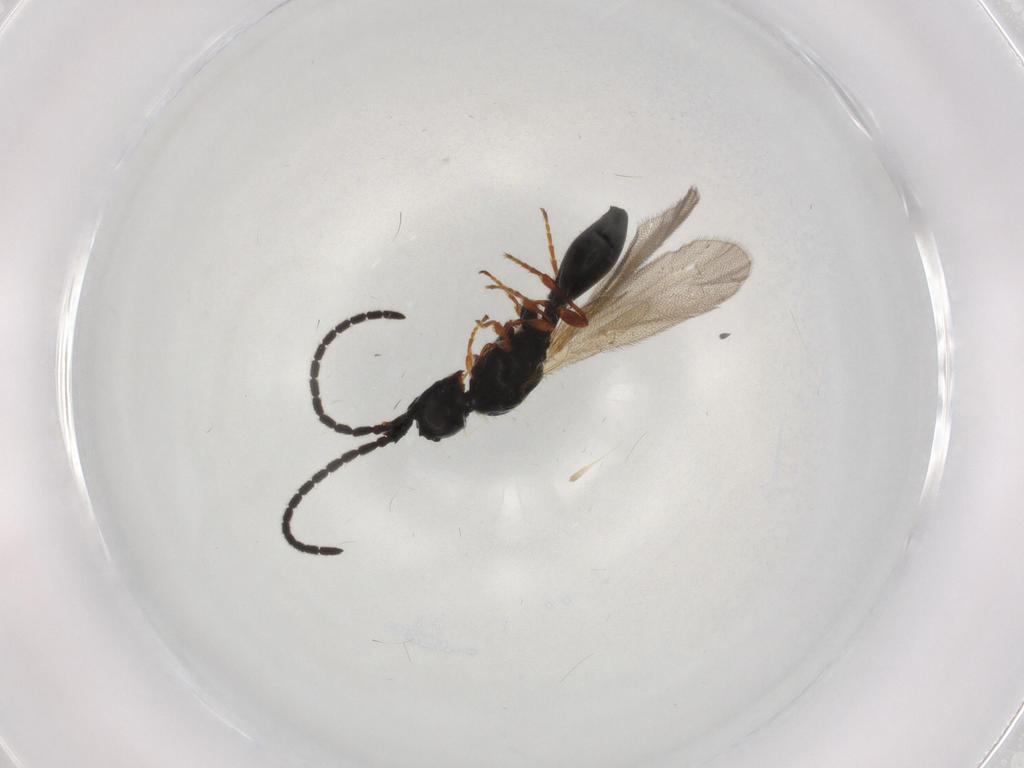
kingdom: Animalia
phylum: Arthropoda
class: Insecta
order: Hymenoptera
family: Diapriidae
